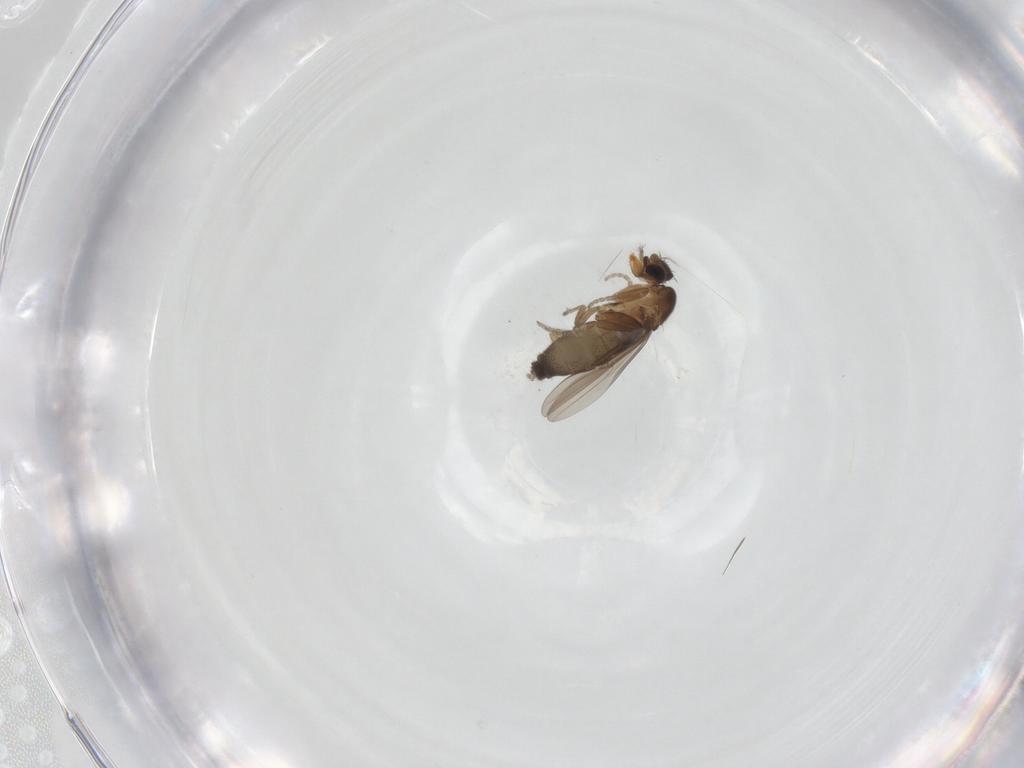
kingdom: Animalia
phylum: Arthropoda
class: Insecta
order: Diptera
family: Phoridae
